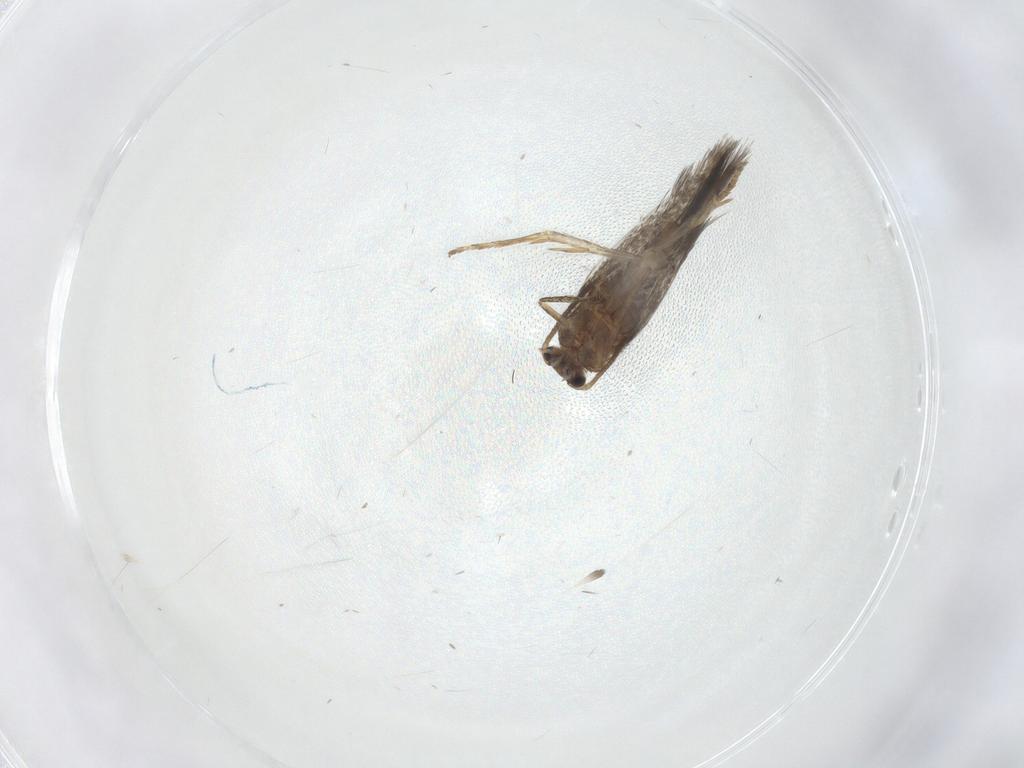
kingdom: Animalia
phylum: Arthropoda
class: Insecta
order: Lepidoptera
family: Nepticulidae
